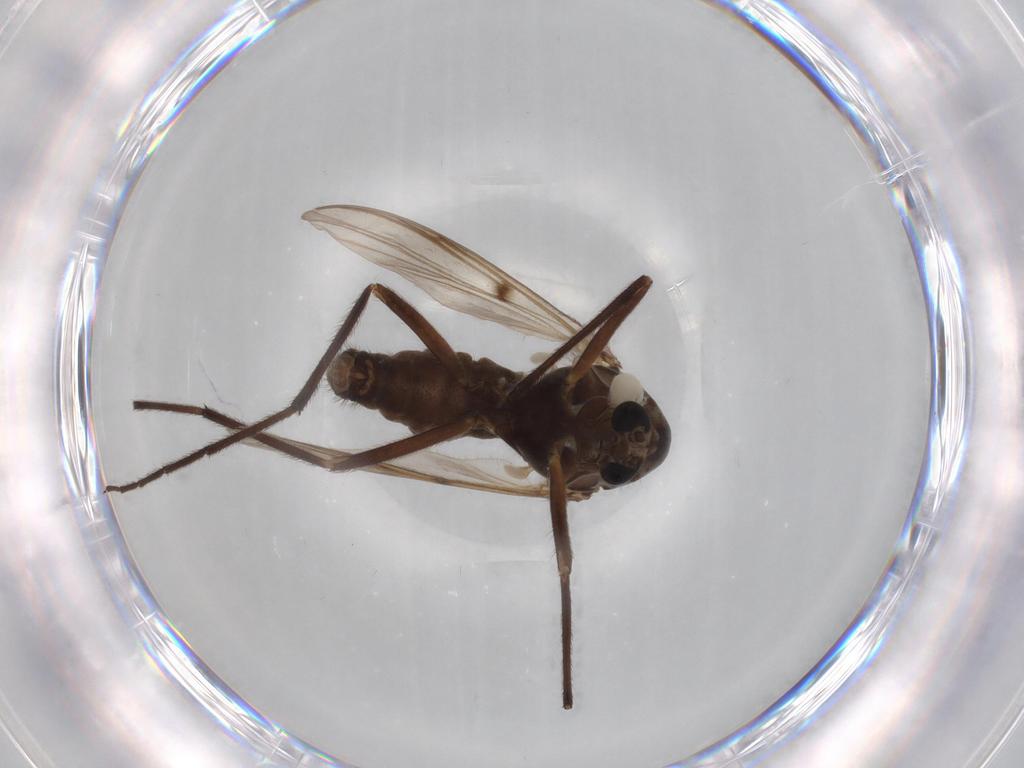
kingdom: Animalia
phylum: Arthropoda
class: Insecta
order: Diptera
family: Chironomidae
